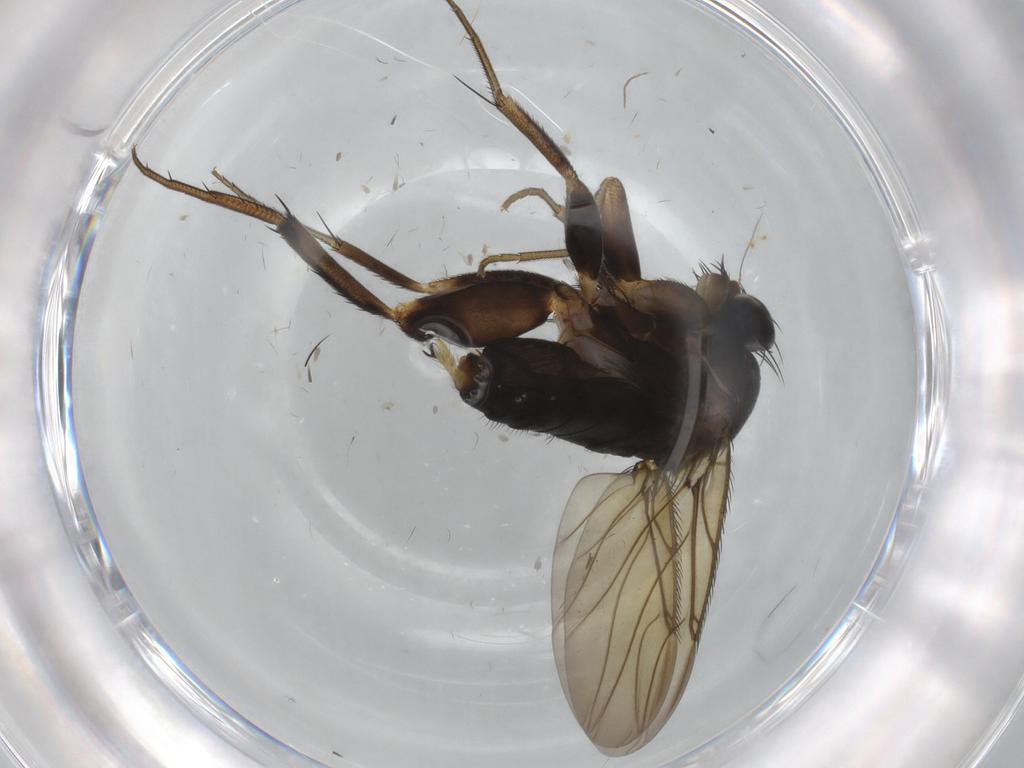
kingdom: Animalia
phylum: Arthropoda
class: Insecta
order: Diptera
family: Phoridae
